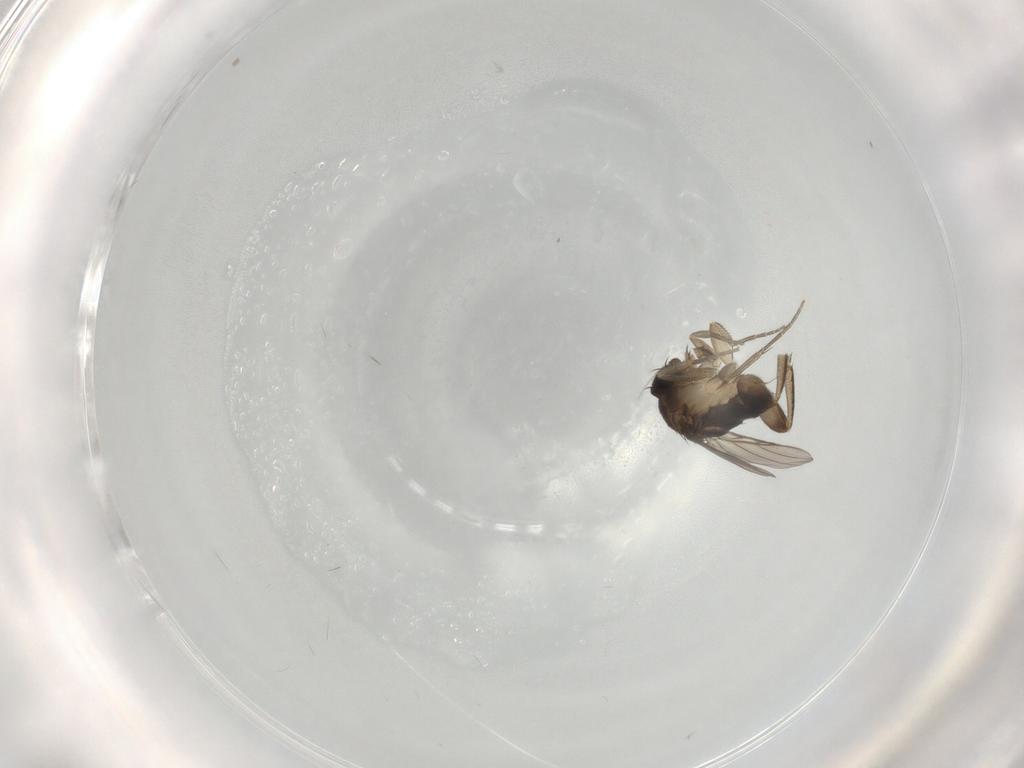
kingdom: Animalia
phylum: Arthropoda
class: Insecta
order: Diptera
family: Phoridae
